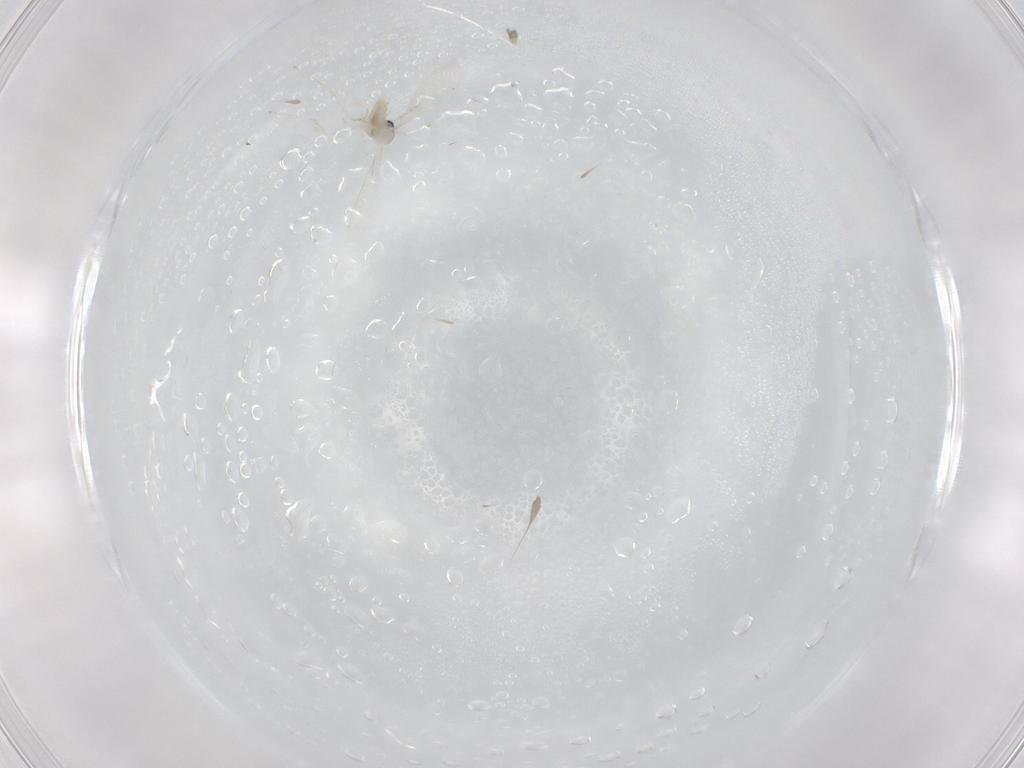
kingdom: Animalia
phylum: Arthropoda
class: Insecta
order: Diptera
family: Cecidomyiidae
